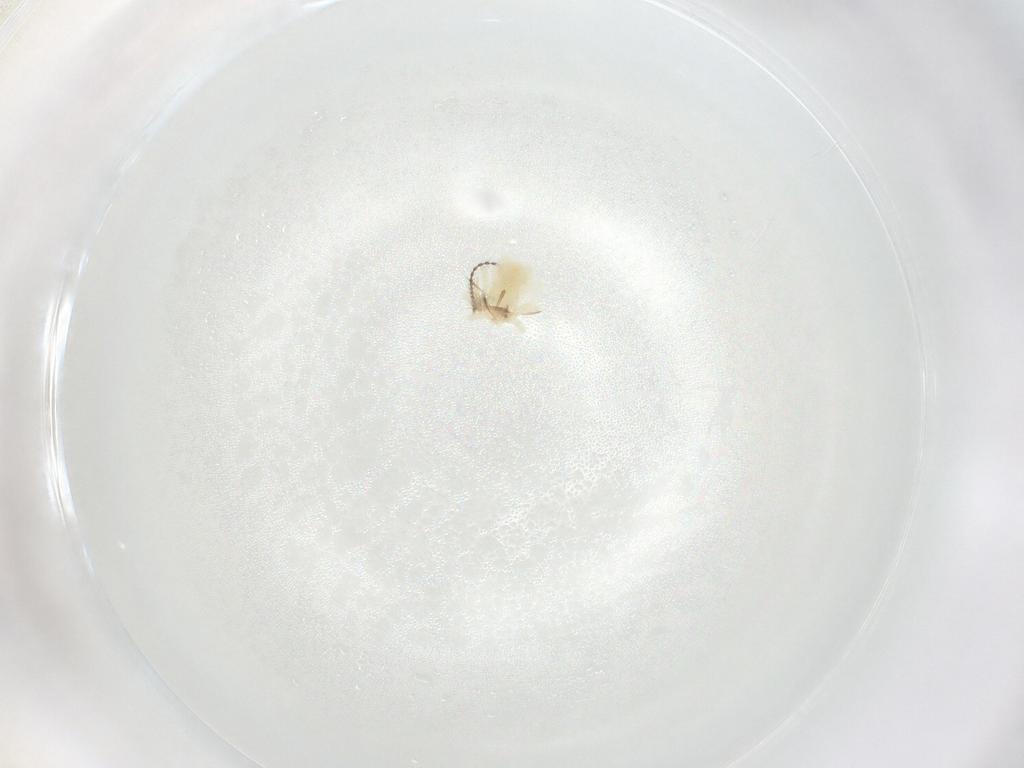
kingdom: Animalia
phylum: Arthropoda
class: Arachnida
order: Trombidiformes
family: Anystidae
